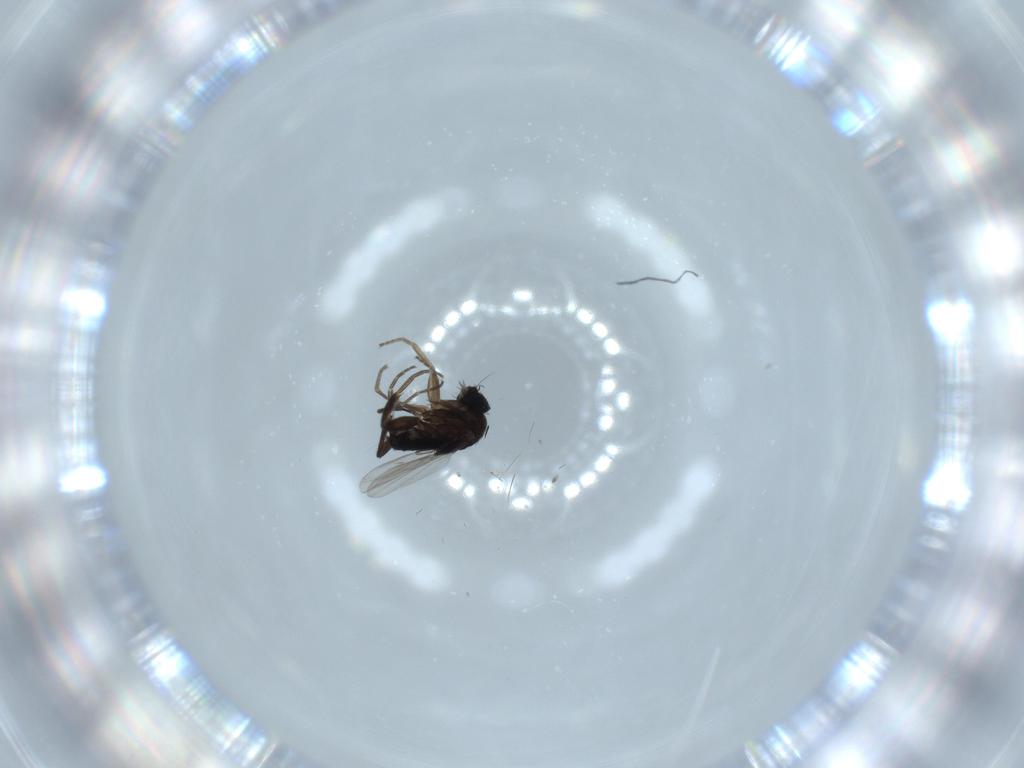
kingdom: Animalia
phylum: Arthropoda
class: Insecta
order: Diptera
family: Phoridae
